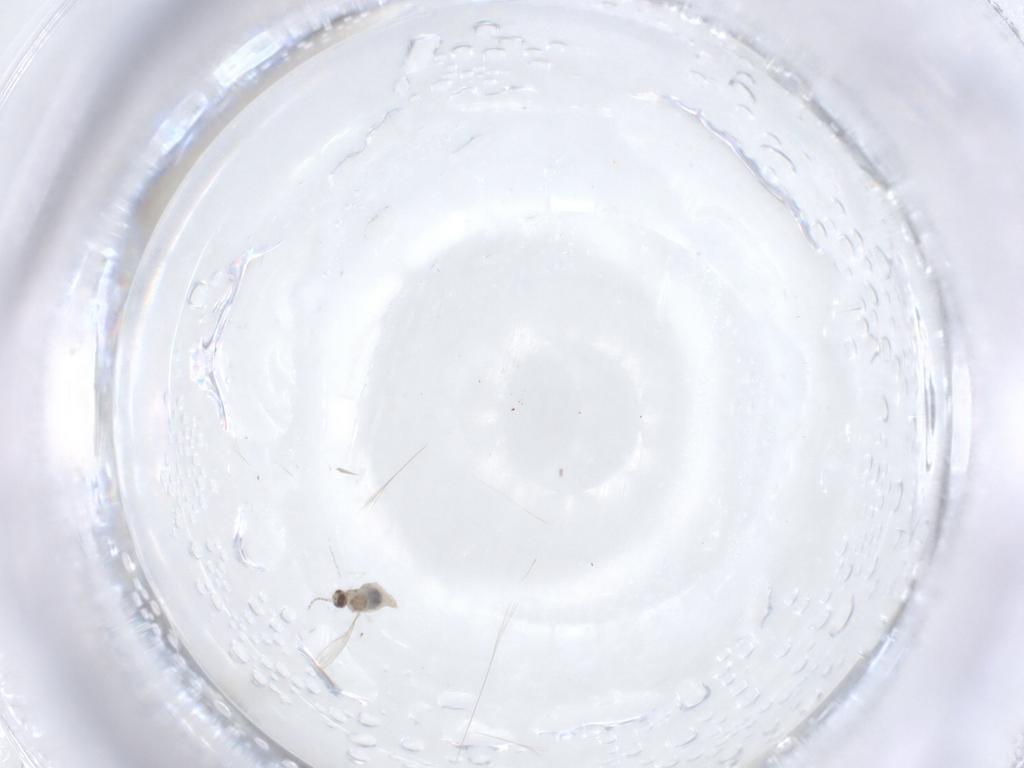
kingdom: Animalia
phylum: Arthropoda
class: Insecta
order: Diptera
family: Cecidomyiidae
